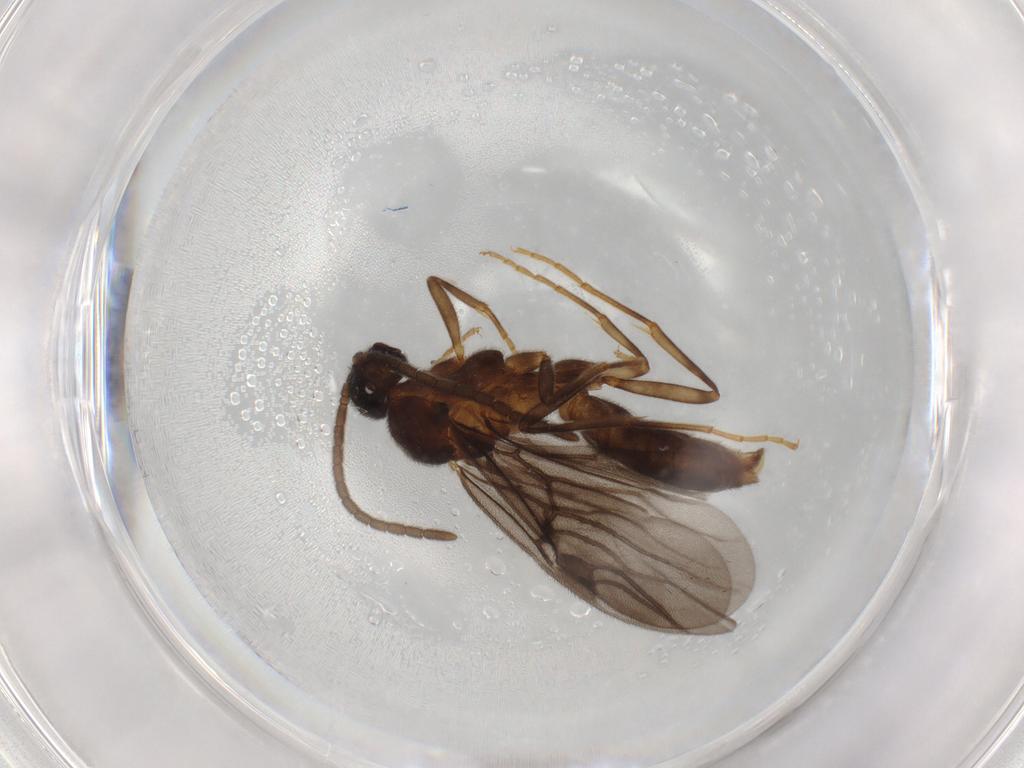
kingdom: Animalia
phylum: Arthropoda
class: Insecta
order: Hymenoptera
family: Formicidae
